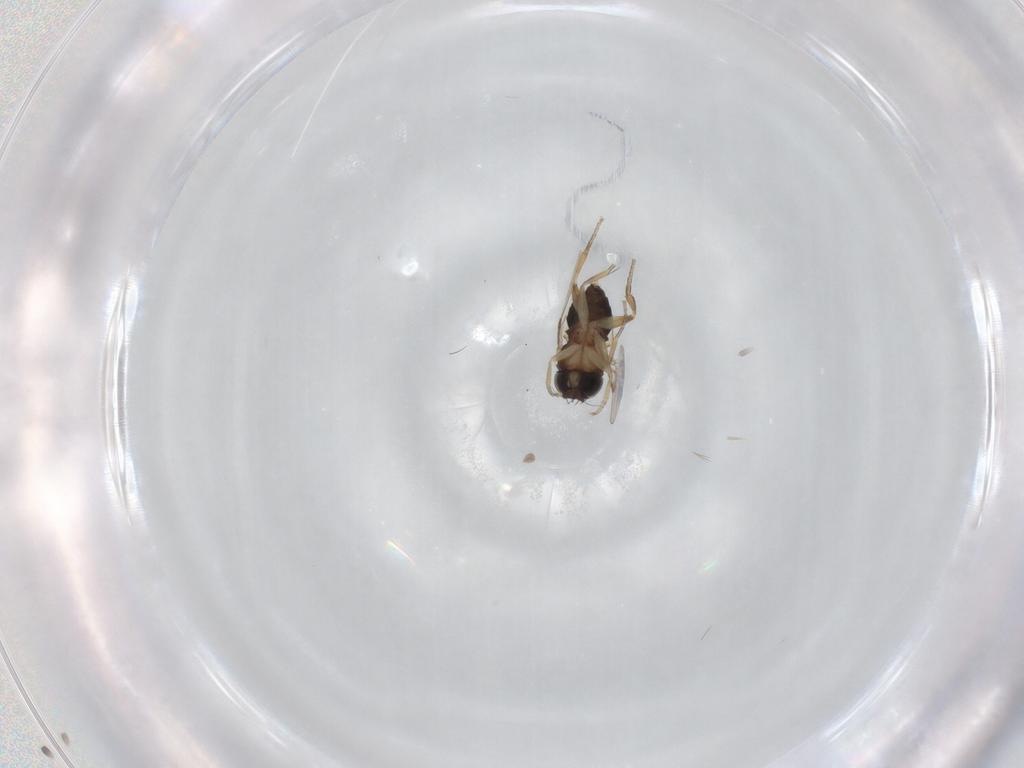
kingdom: Animalia
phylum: Arthropoda
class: Insecta
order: Diptera
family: Phoridae
